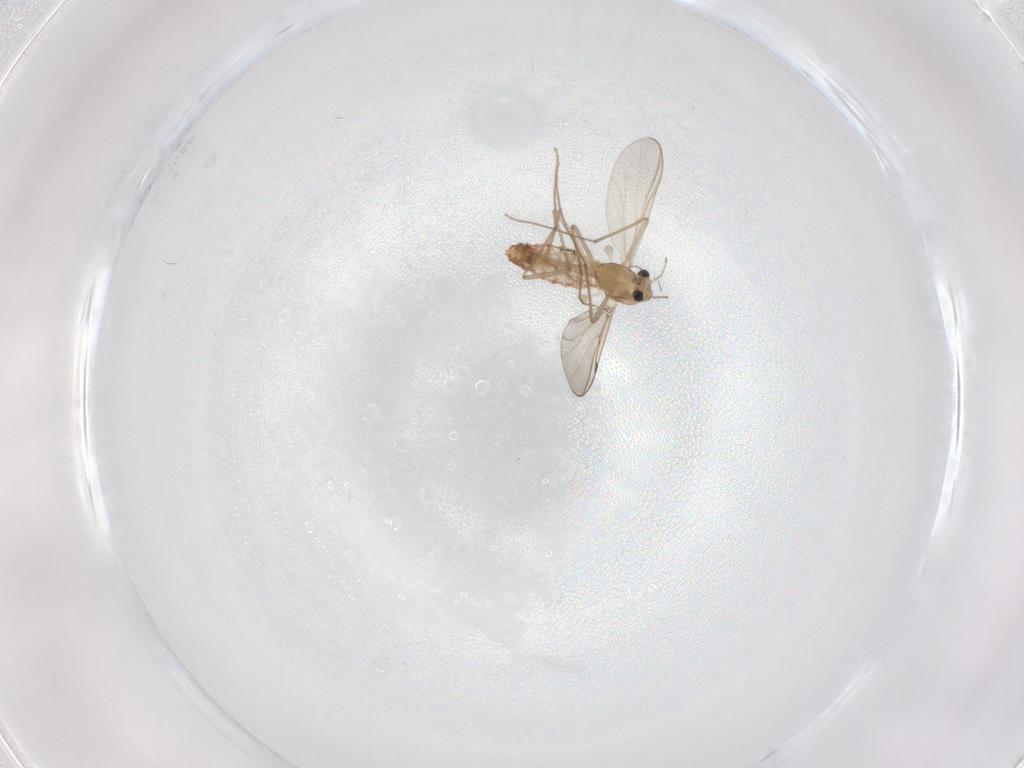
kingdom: Animalia
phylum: Arthropoda
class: Insecta
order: Diptera
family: Chironomidae
